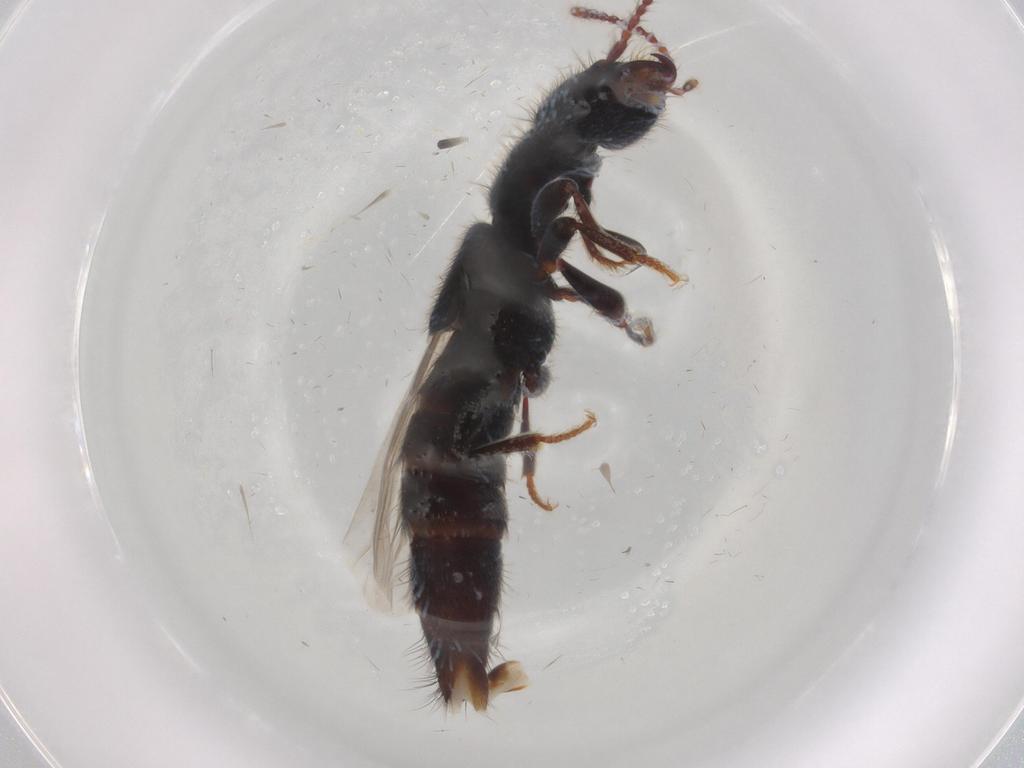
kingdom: Animalia
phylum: Arthropoda
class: Insecta
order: Coleoptera
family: Staphylinidae
